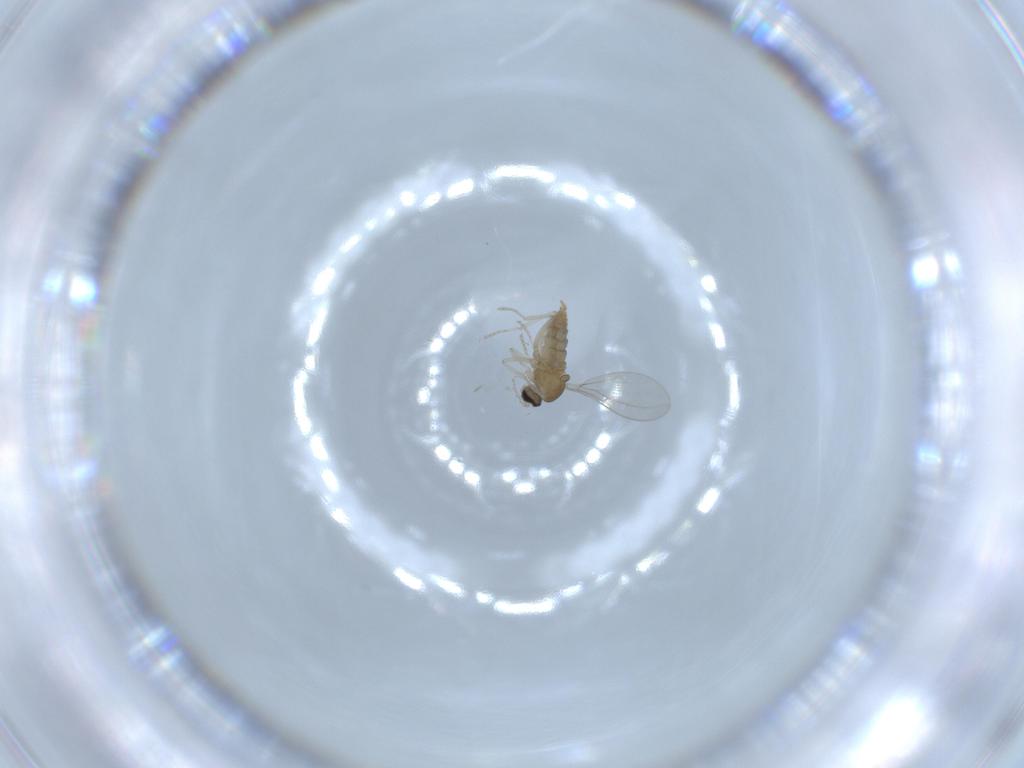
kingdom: Animalia
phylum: Arthropoda
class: Insecta
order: Diptera
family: Cecidomyiidae
